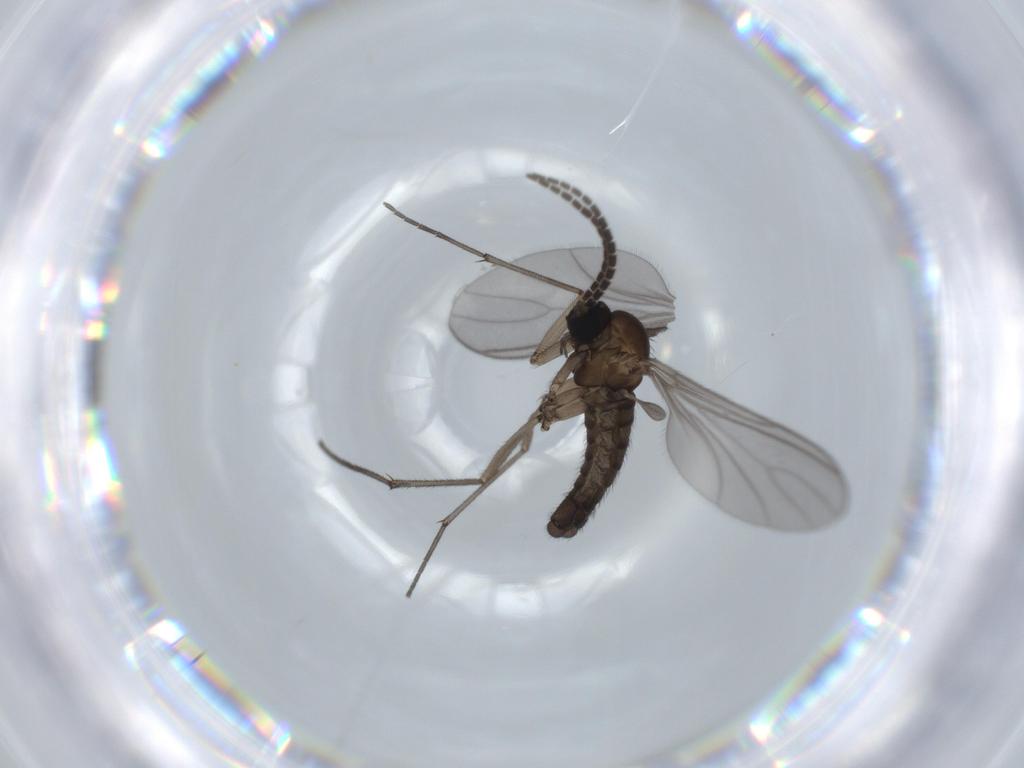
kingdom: Animalia
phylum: Arthropoda
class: Insecta
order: Diptera
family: Sciaridae
